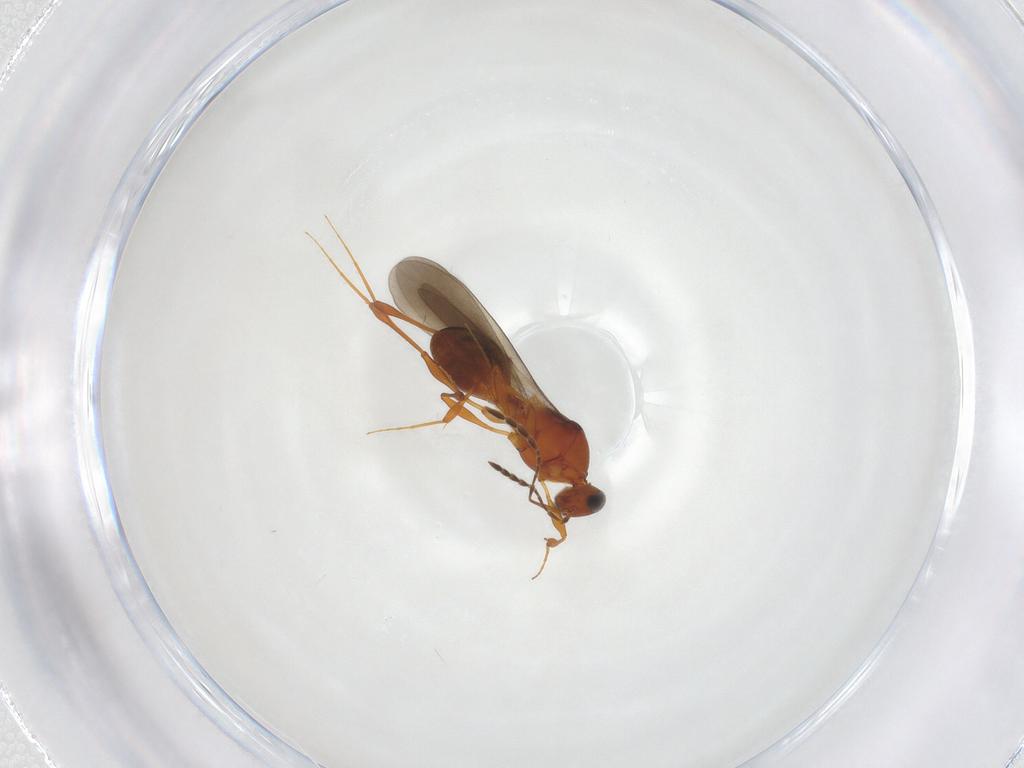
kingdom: Animalia
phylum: Arthropoda
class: Insecta
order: Hymenoptera
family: Platygastridae
